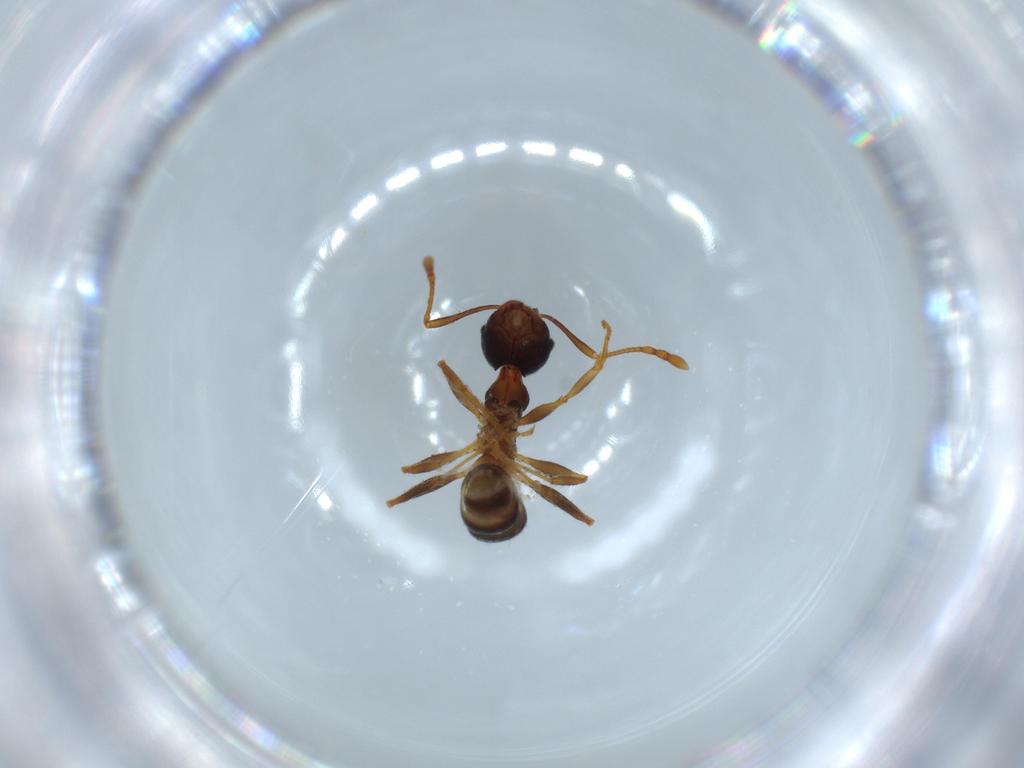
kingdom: Animalia
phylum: Arthropoda
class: Insecta
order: Hymenoptera
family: Formicidae
